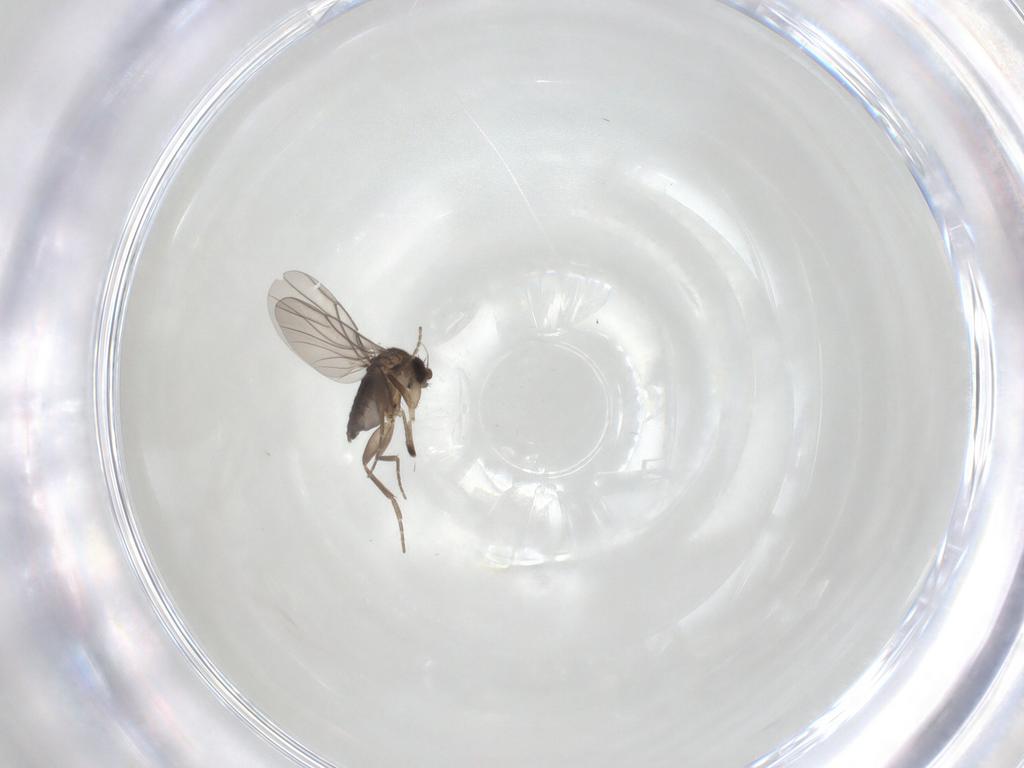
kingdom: Animalia
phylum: Arthropoda
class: Insecta
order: Diptera
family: Phoridae
